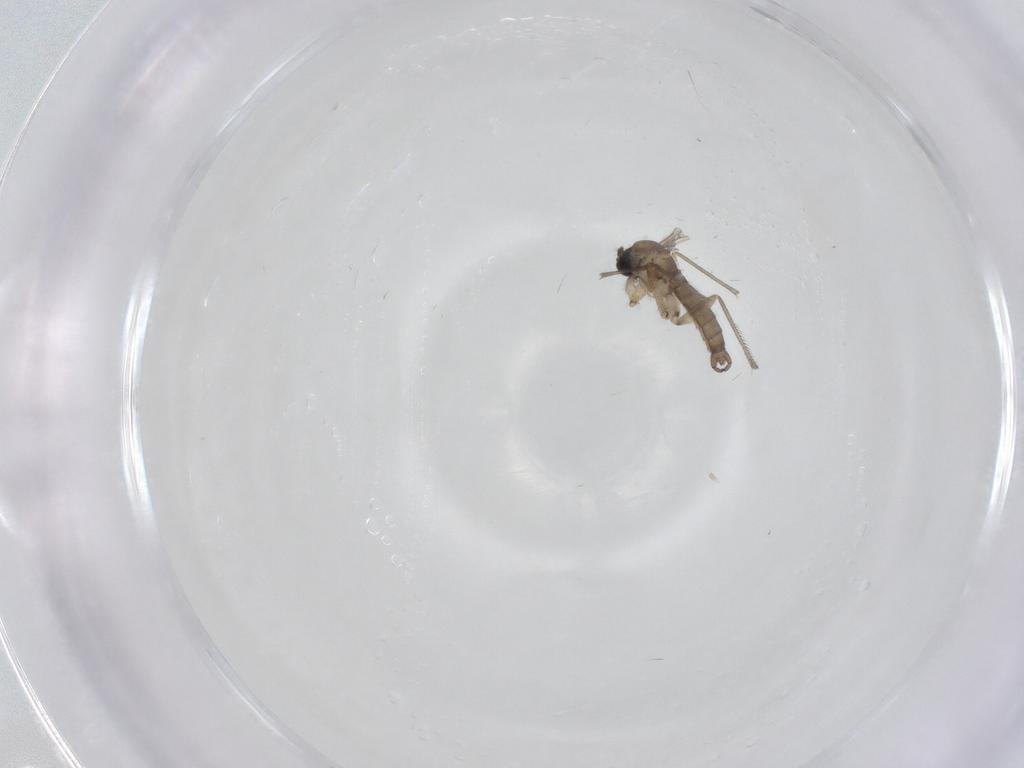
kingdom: Animalia
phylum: Arthropoda
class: Insecta
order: Diptera
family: Phoridae
